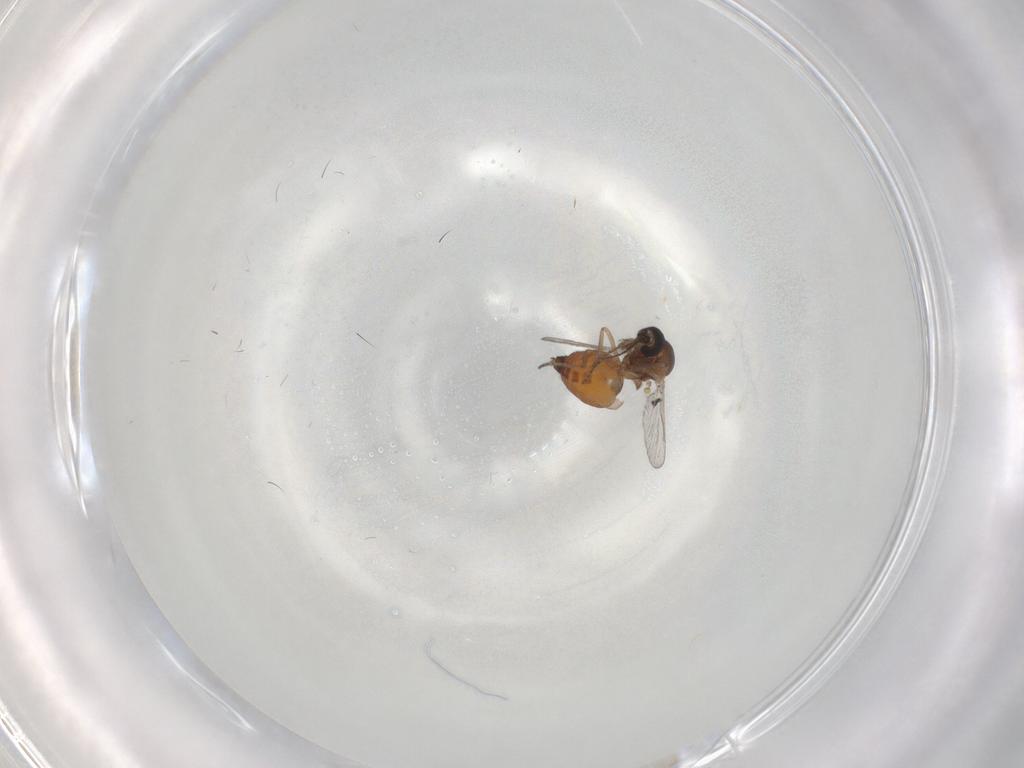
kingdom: Animalia
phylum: Arthropoda
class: Insecta
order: Diptera
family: Ceratopogonidae
